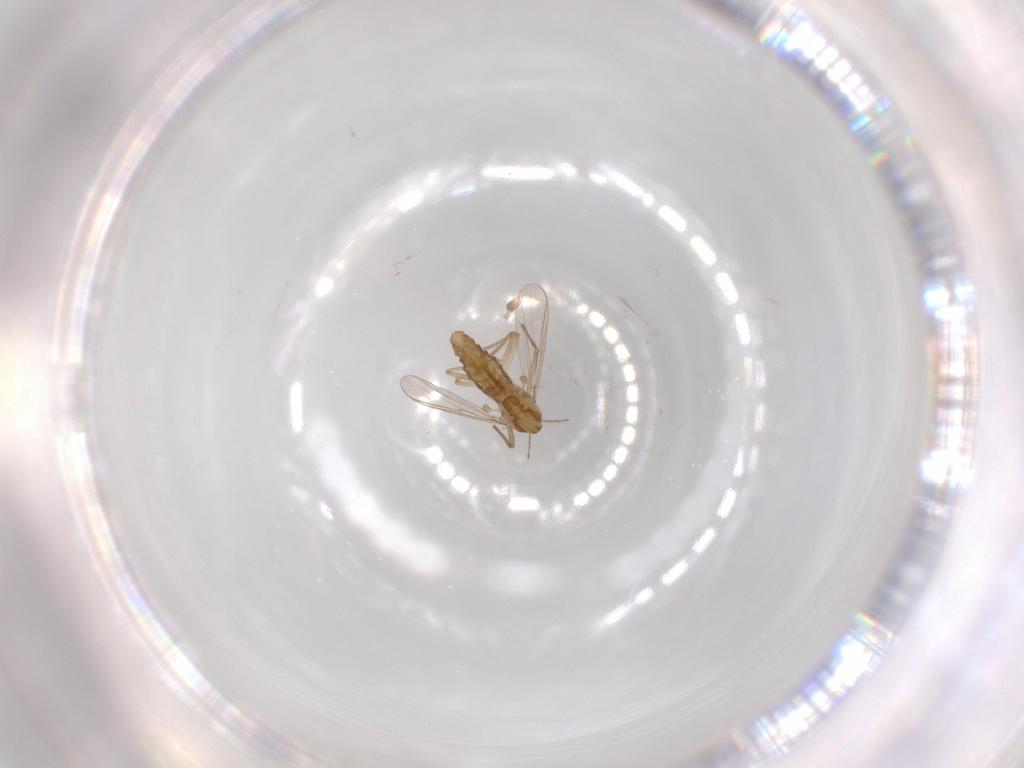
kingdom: Animalia
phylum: Arthropoda
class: Insecta
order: Diptera
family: Chironomidae
